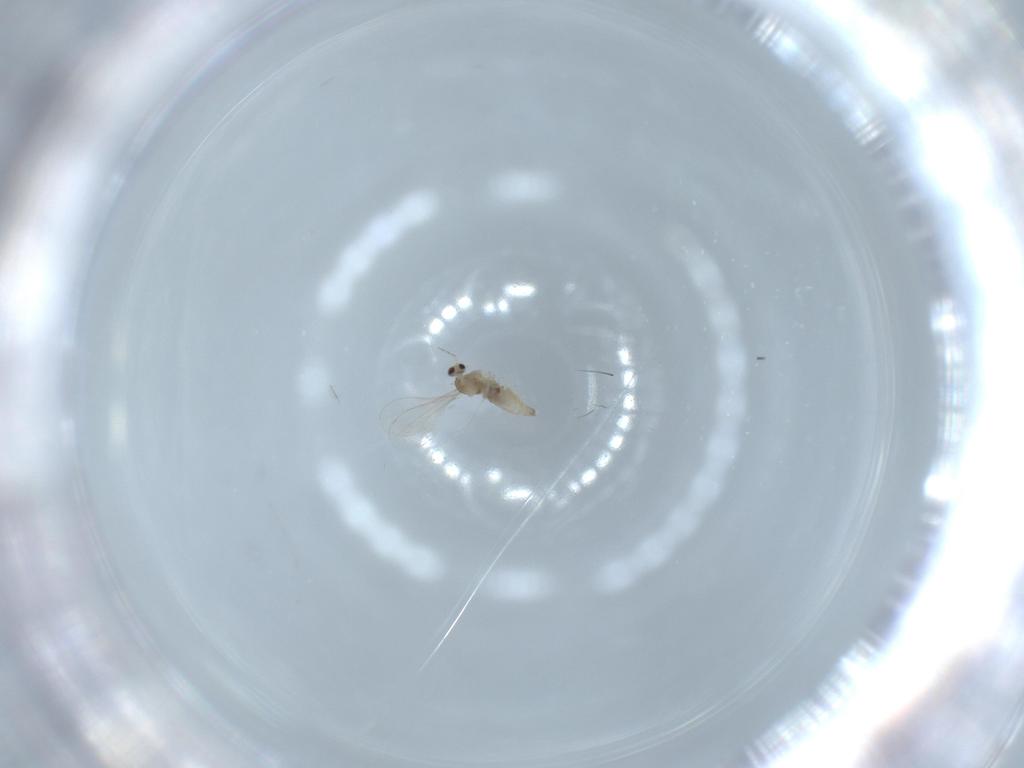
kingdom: Animalia
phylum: Arthropoda
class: Insecta
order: Diptera
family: Cecidomyiidae
